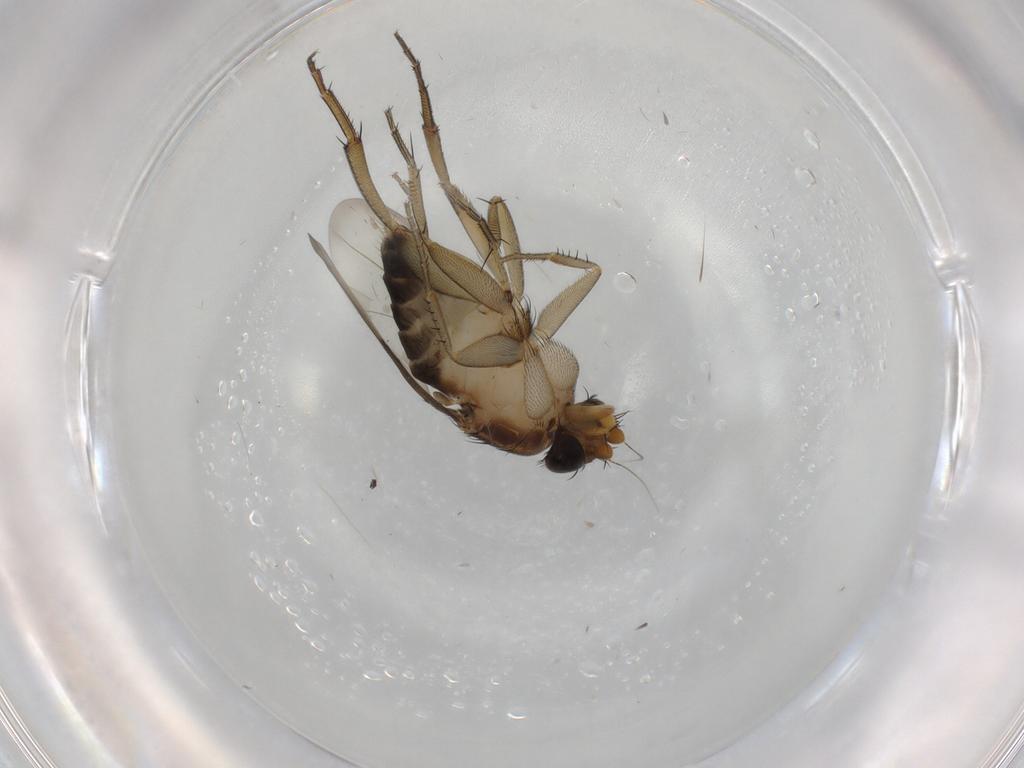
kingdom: Animalia
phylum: Arthropoda
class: Insecta
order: Diptera
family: Chironomidae
